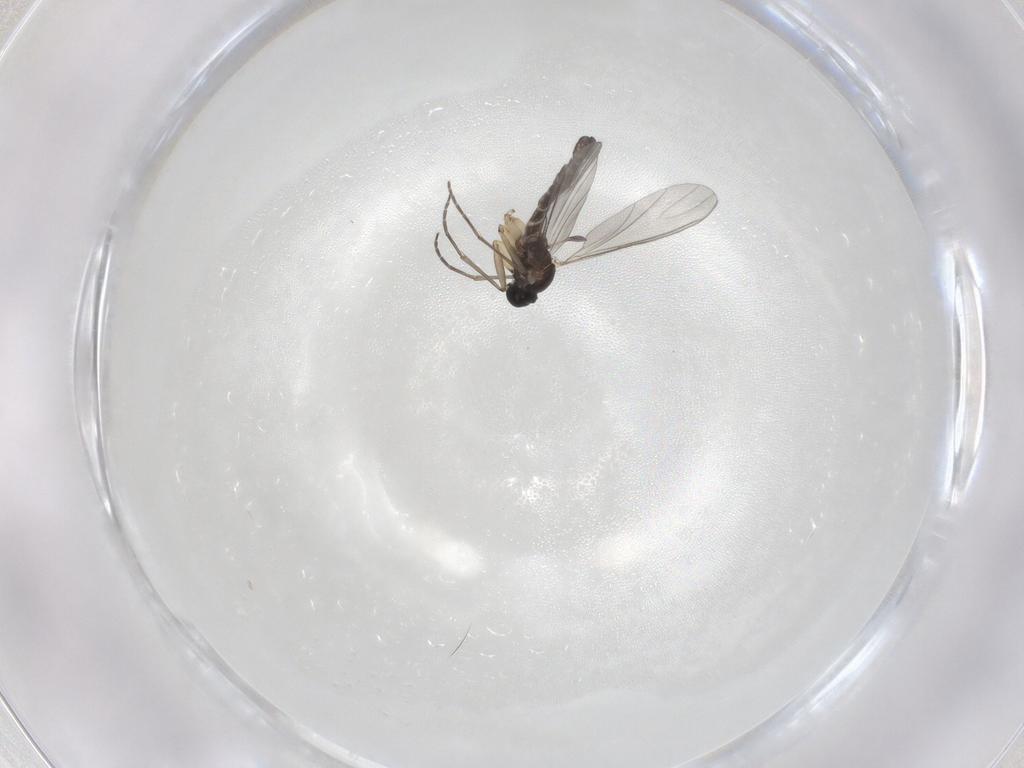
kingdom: Animalia
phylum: Arthropoda
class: Insecta
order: Diptera
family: Sciaridae
